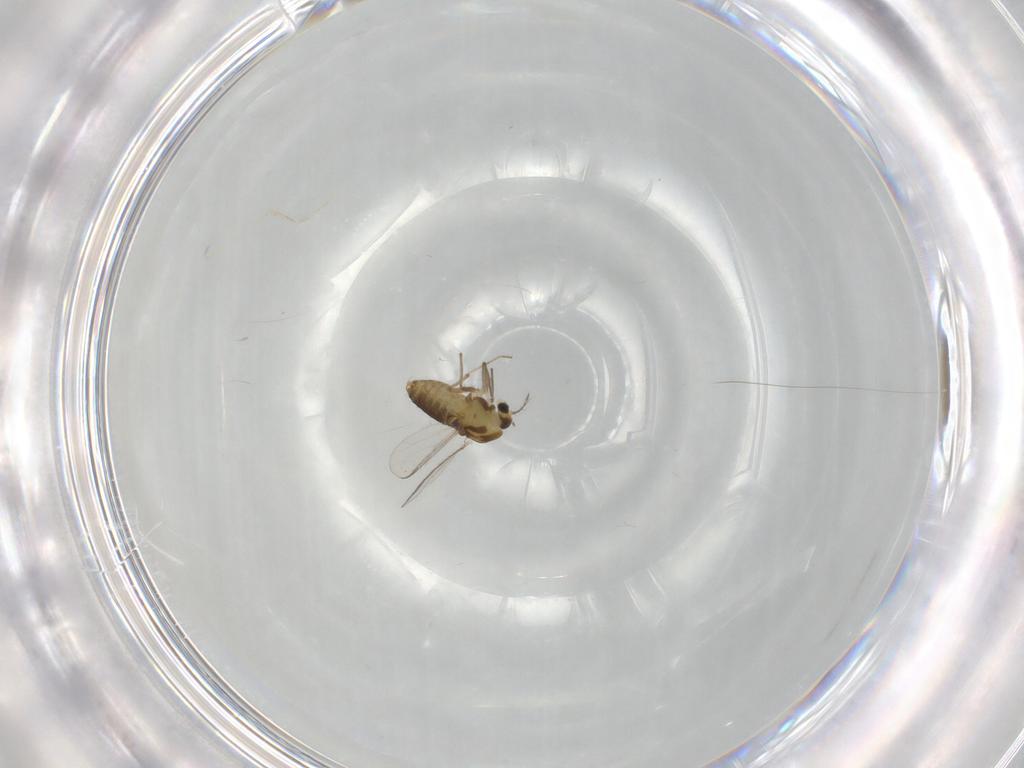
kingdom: Animalia
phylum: Arthropoda
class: Insecta
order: Diptera
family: Chironomidae
